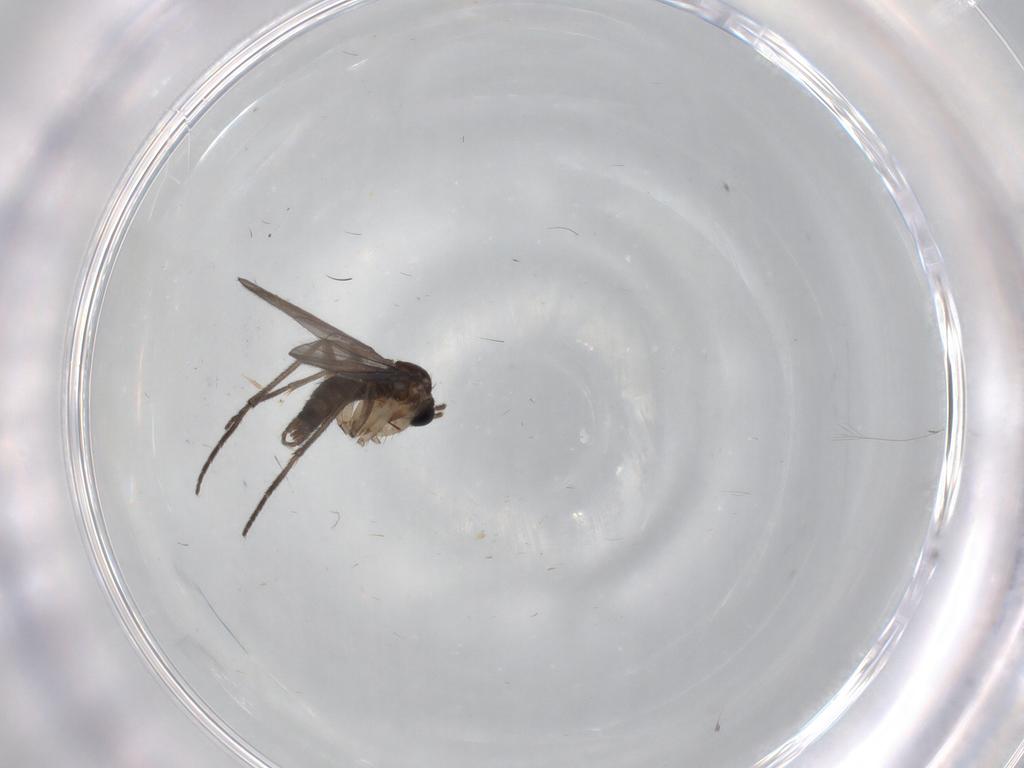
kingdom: Animalia
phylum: Arthropoda
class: Insecta
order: Diptera
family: Sciaridae
